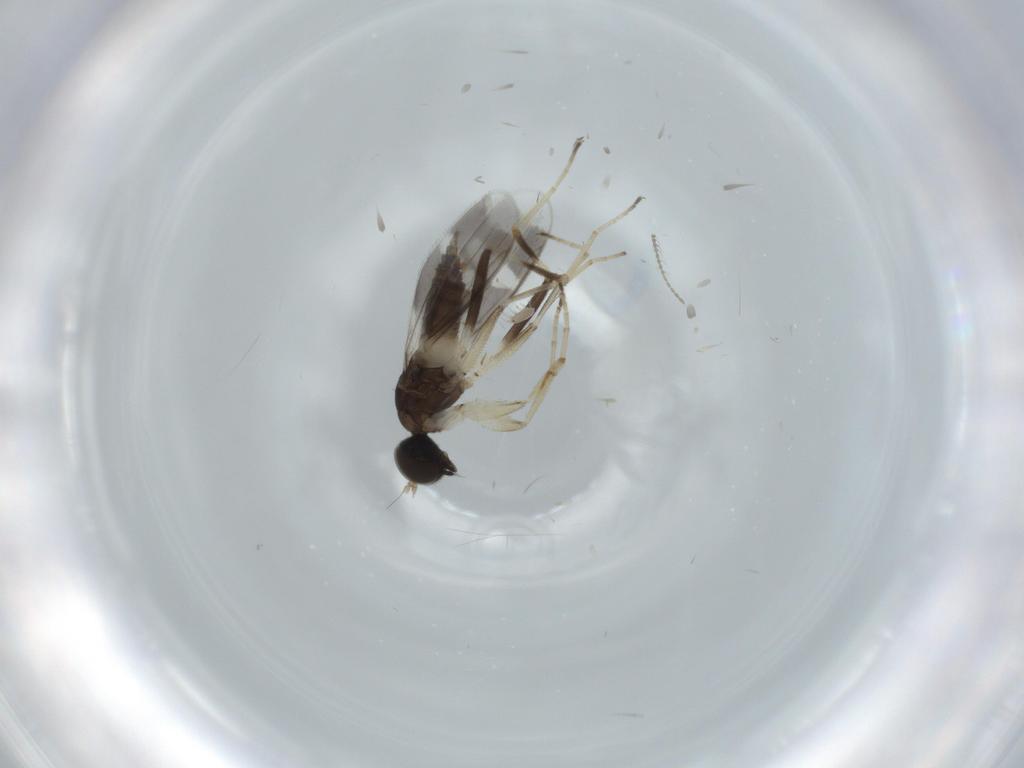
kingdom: Animalia
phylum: Arthropoda
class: Insecta
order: Diptera
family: Hybotidae
